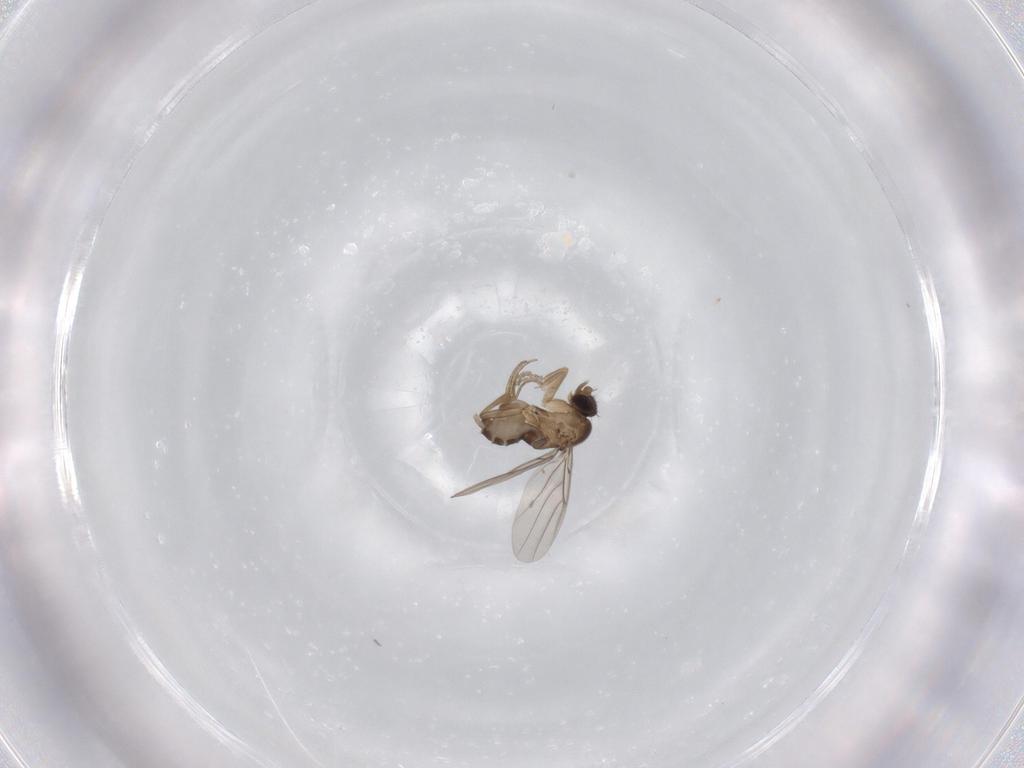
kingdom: Animalia
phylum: Arthropoda
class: Insecta
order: Diptera
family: Phoridae
